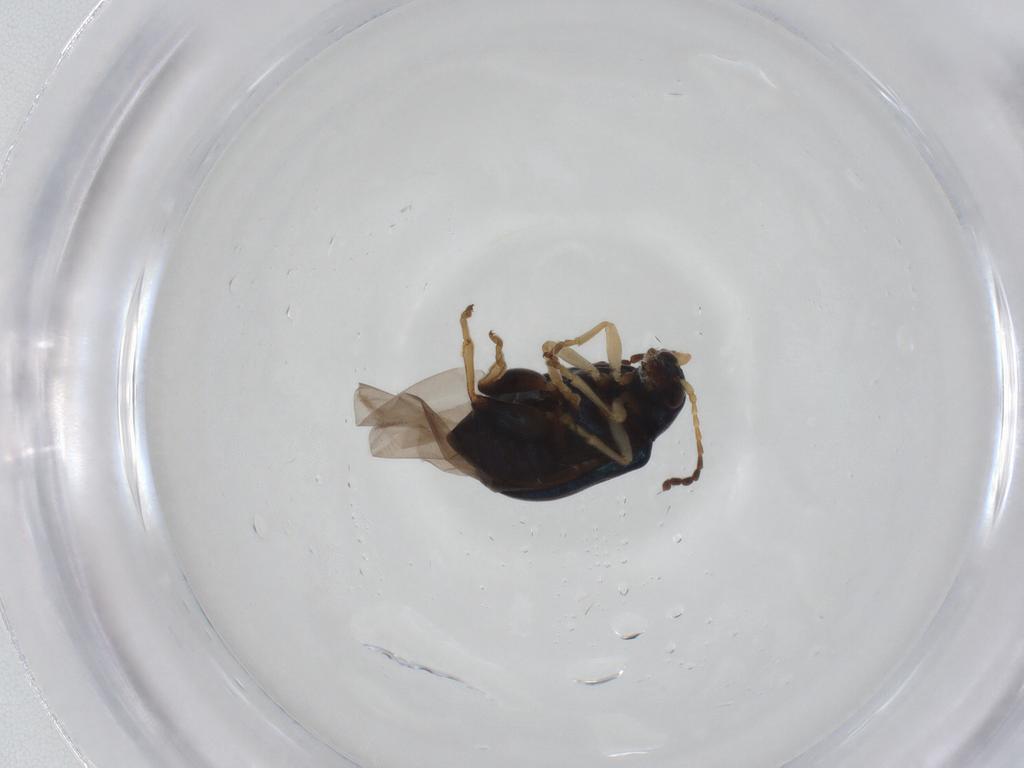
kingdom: Animalia
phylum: Arthropoda
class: Insecta
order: Coleoptera
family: Chrysomelidae
